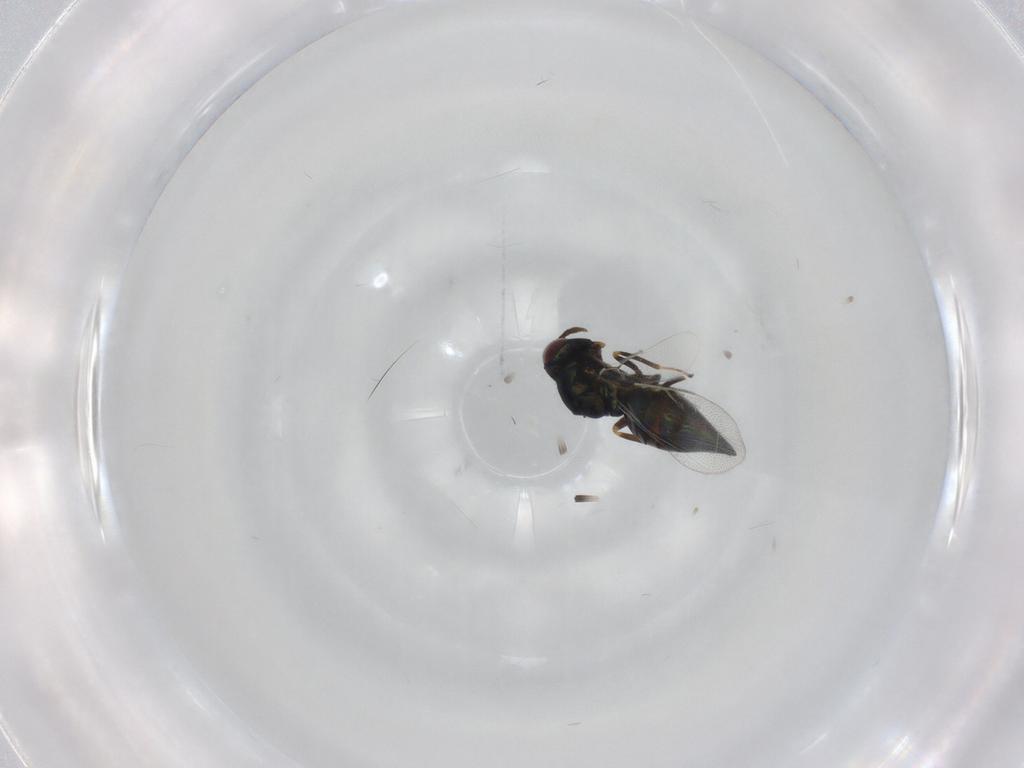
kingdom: Animalia
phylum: Arthropoda
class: Insecta
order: Hymenoptera
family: Pteromalidae
